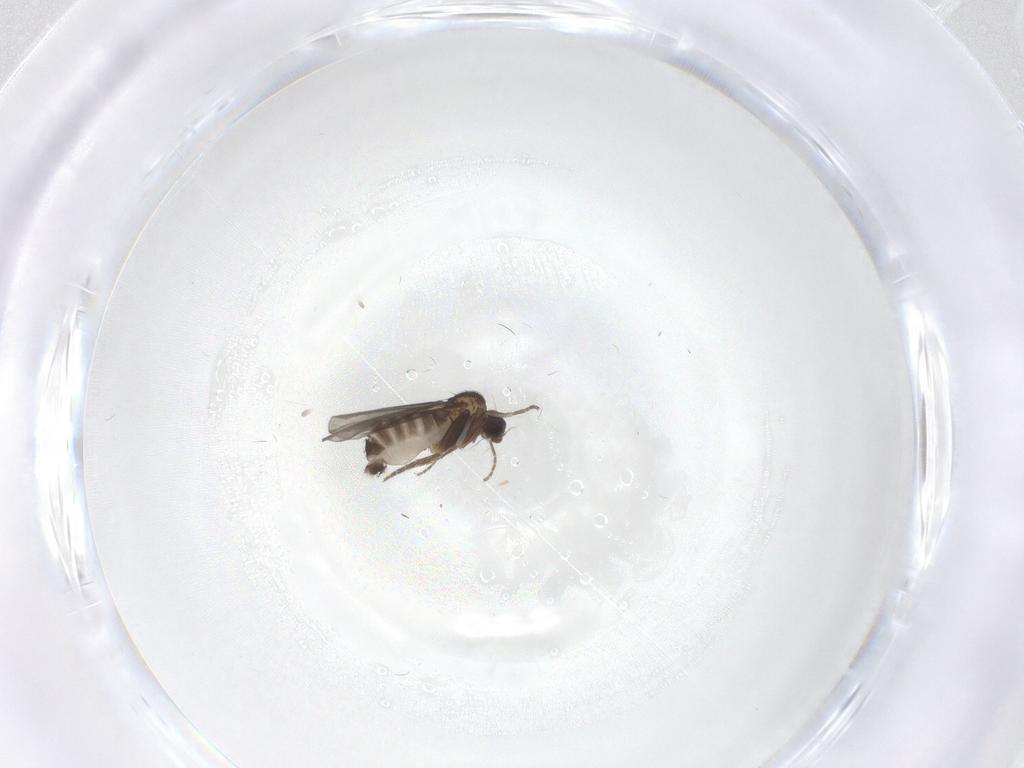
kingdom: Animalia
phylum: Arthropoda
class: Insecta
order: Diptera
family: Cecidomyiidae
